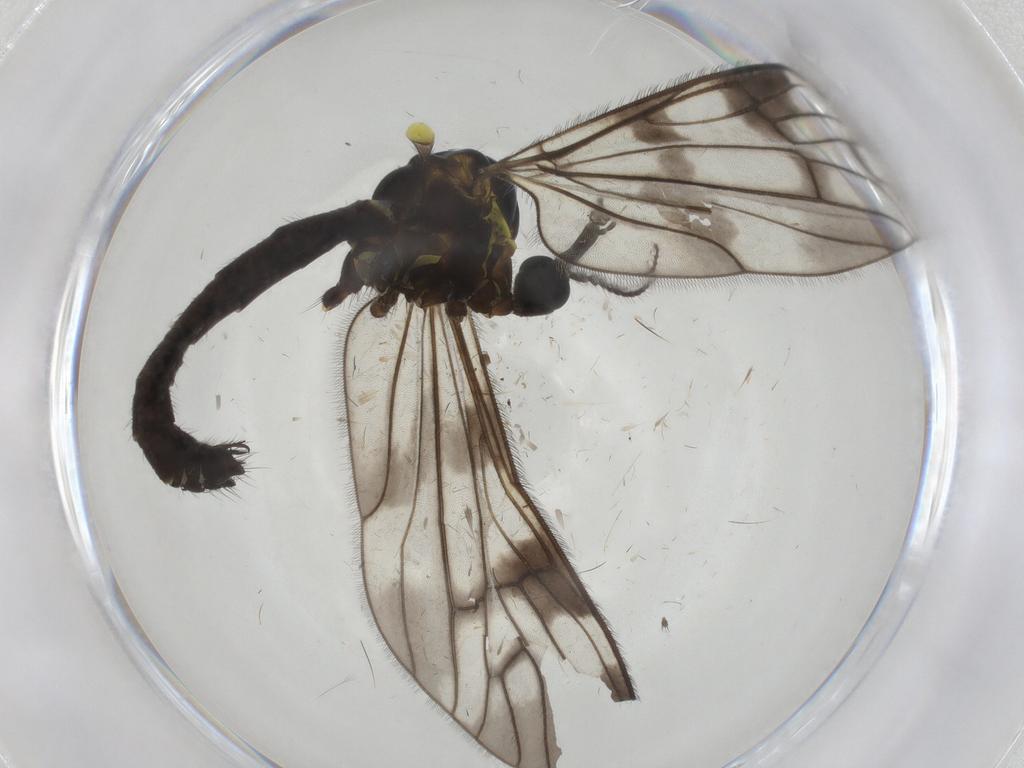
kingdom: Animalia
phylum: Arthropoda
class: Insecta
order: Diptera
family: Limoniidae
